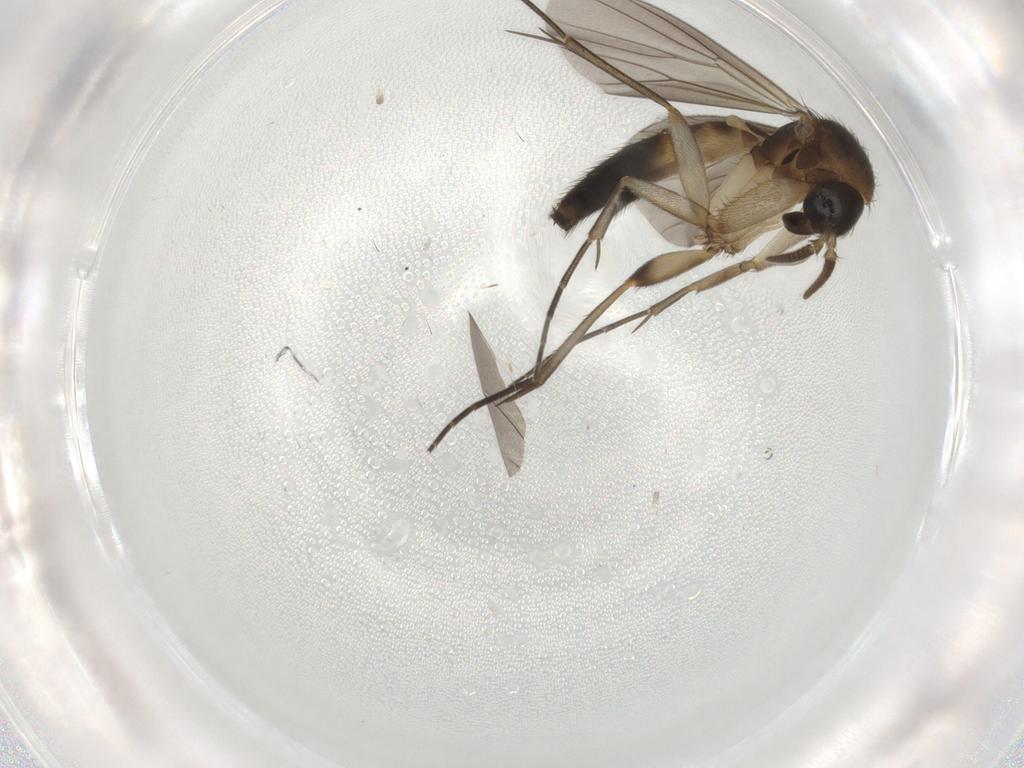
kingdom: Animalia
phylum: Arthropoda
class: Insecta
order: Diptera
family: Mycetophilidae
